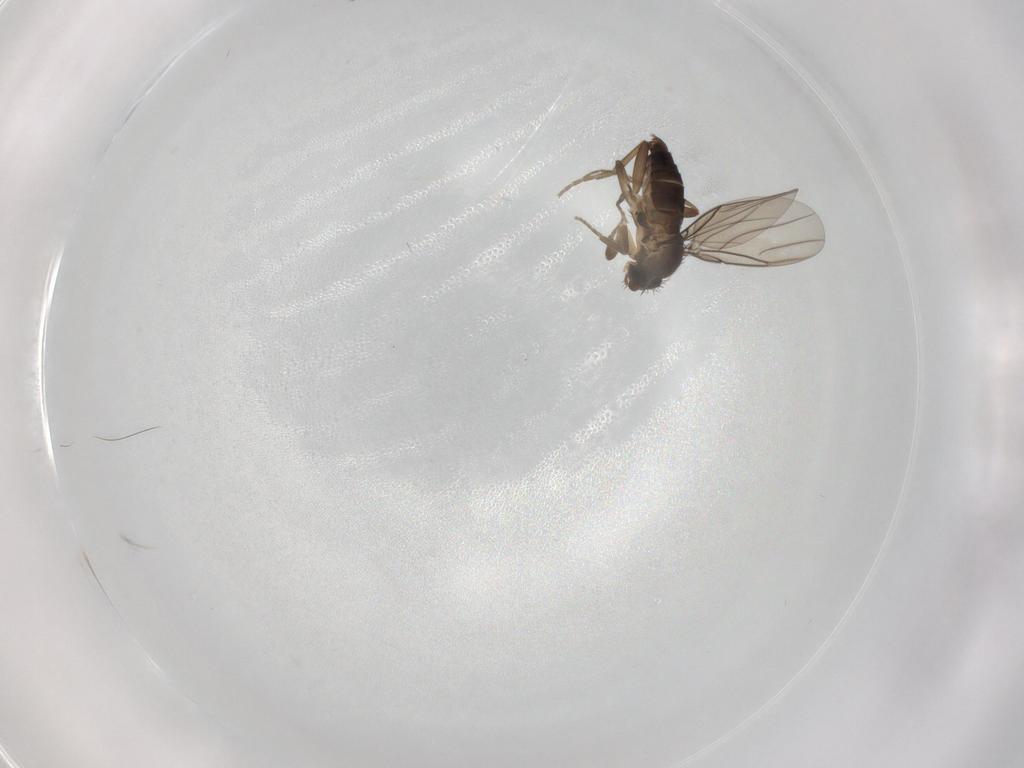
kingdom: Animalia
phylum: Arthropoda
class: Insecta
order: Diptera
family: Phoridae
